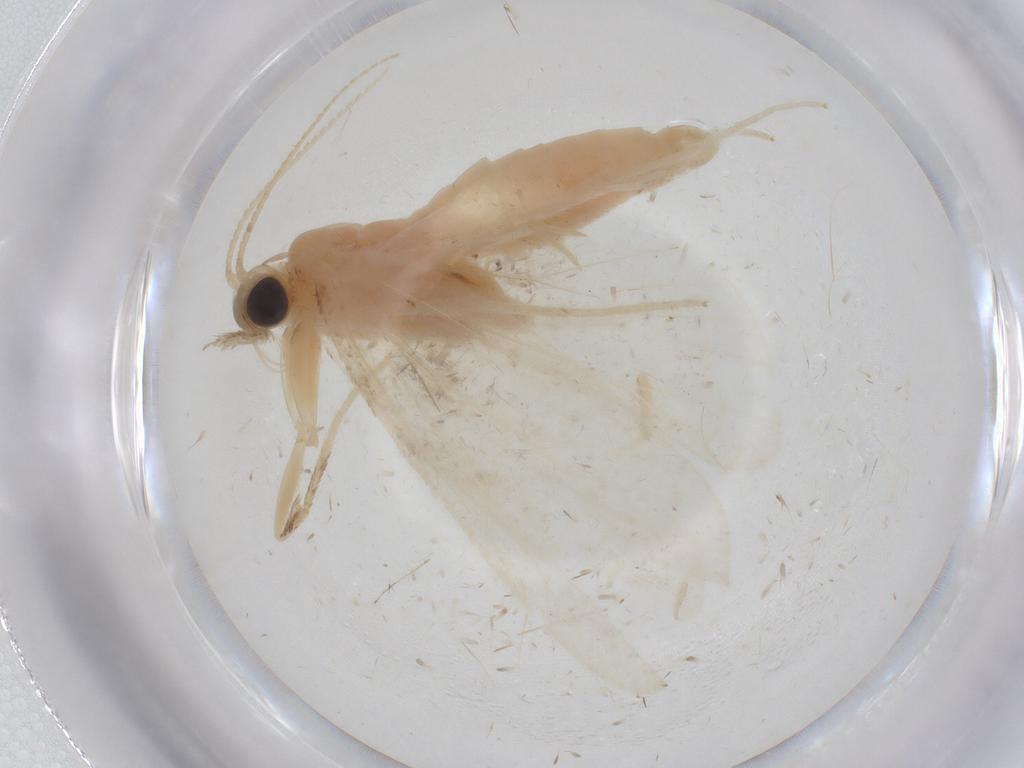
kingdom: Animalia
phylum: Arthropoda
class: Insecta
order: Lepidoptera
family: Crambidae
